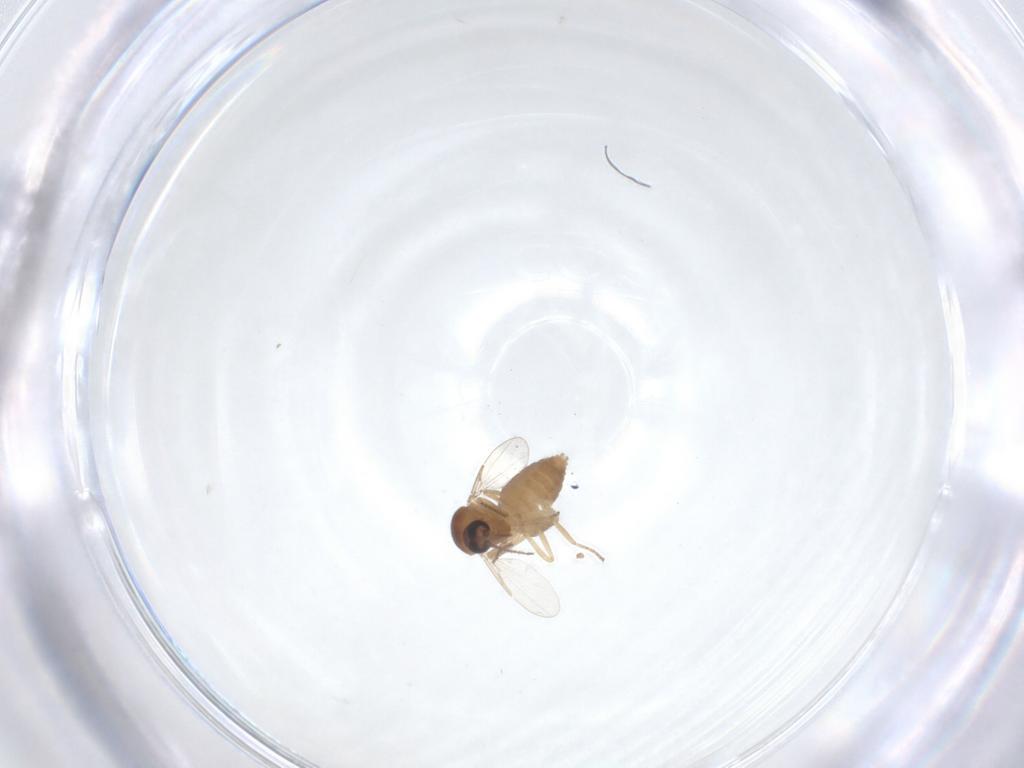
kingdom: Animalia
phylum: Arthropoda
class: Insecta
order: Diptera
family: Ceratopogonidae
